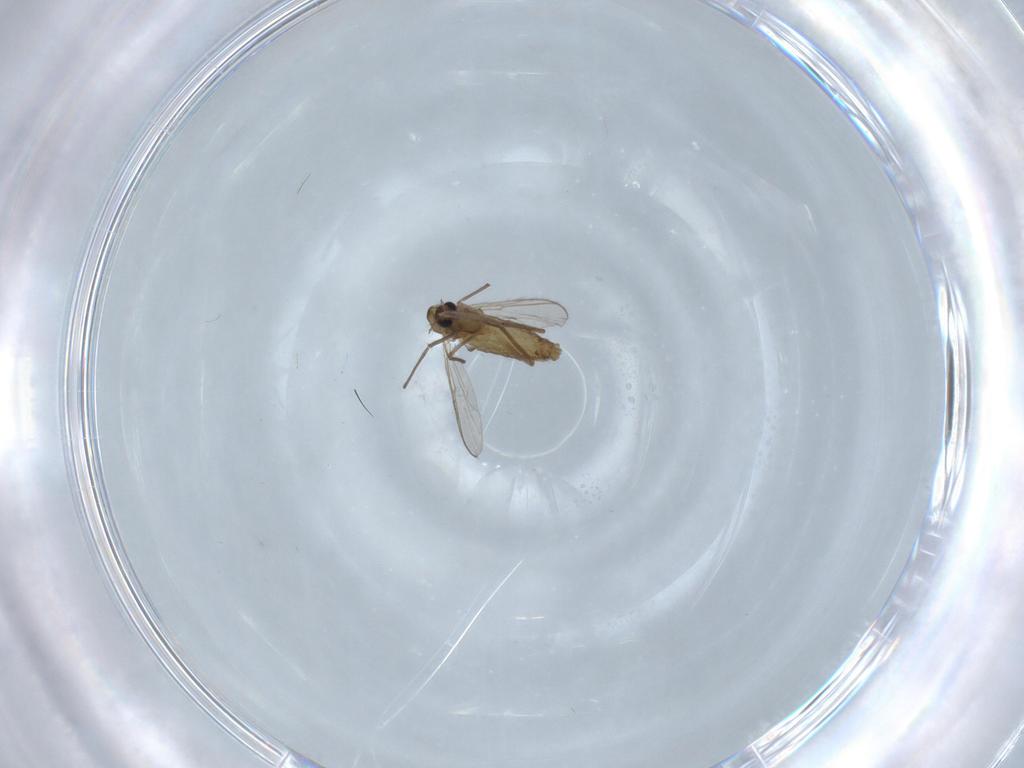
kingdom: Animalia
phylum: Arthropoda
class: Insecta
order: Diptera
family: Chironomidae
